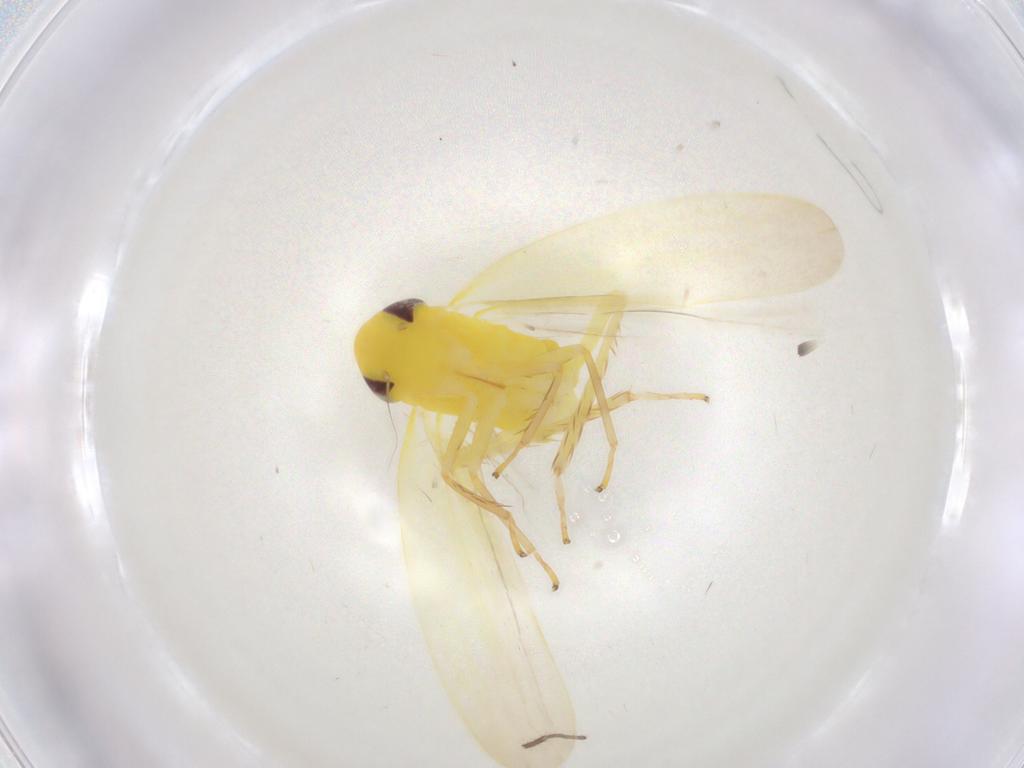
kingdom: Animalia
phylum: Arthropoda
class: Insecta
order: Hemiptera
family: Cicadellidae
